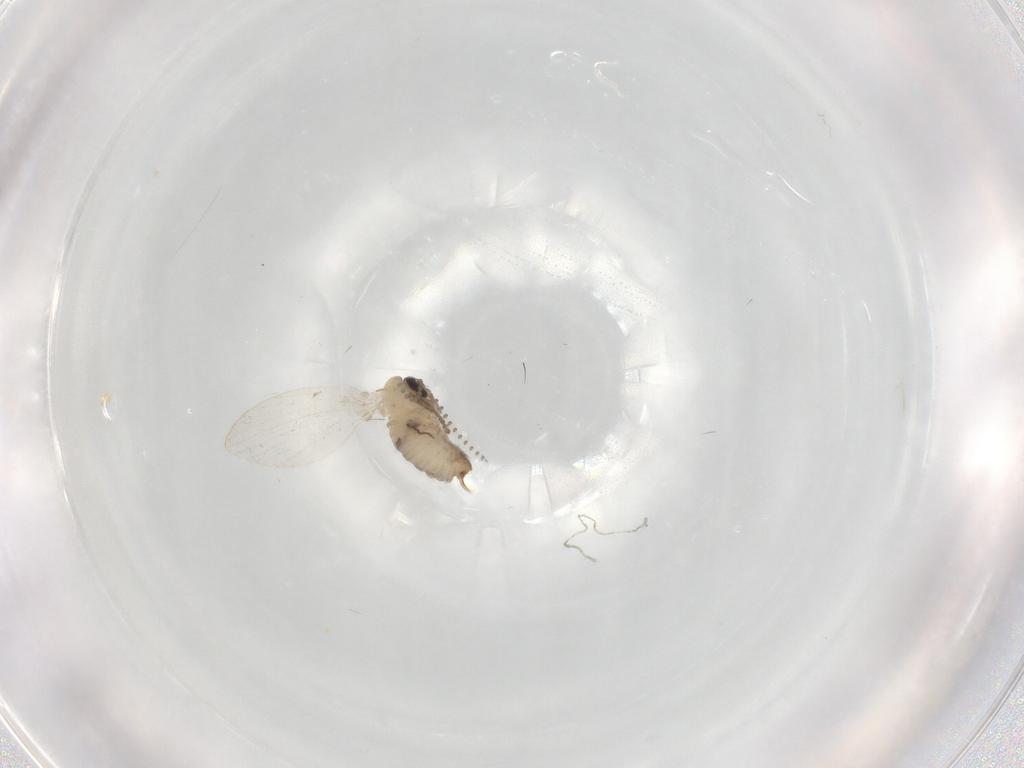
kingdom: Animalia
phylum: Arthropoda
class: Insecta
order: Diptera
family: Psychodidae
